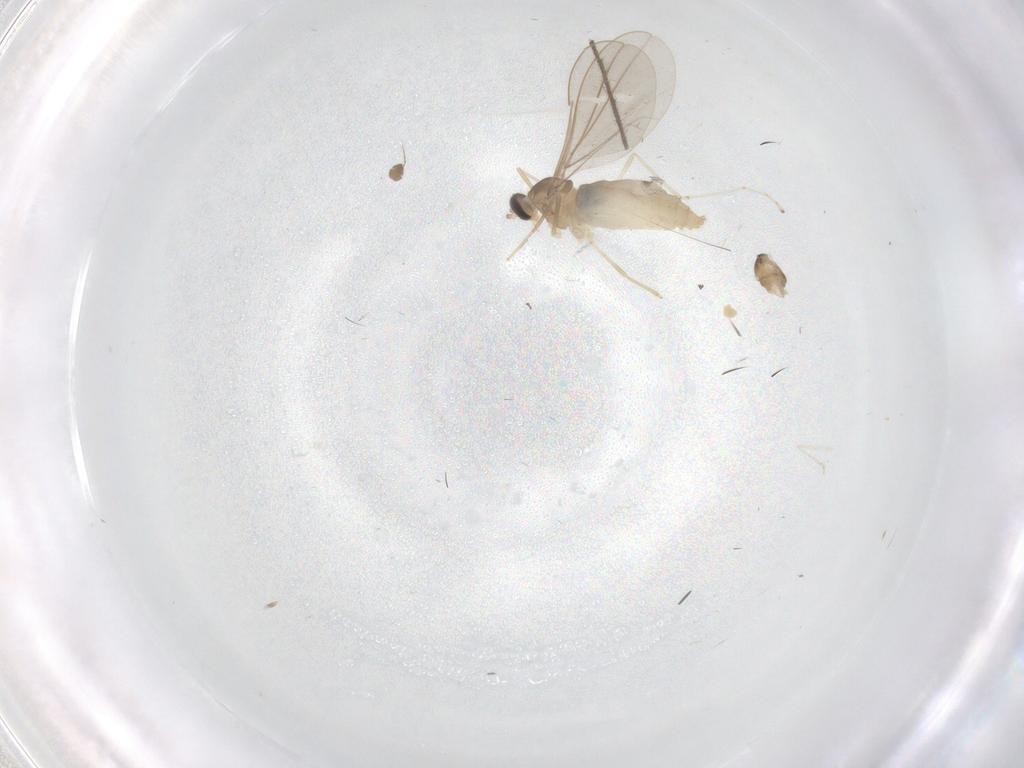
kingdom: Animalia
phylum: Arthropoda
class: Insecta
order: Diptera
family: Cecidomyiidae
